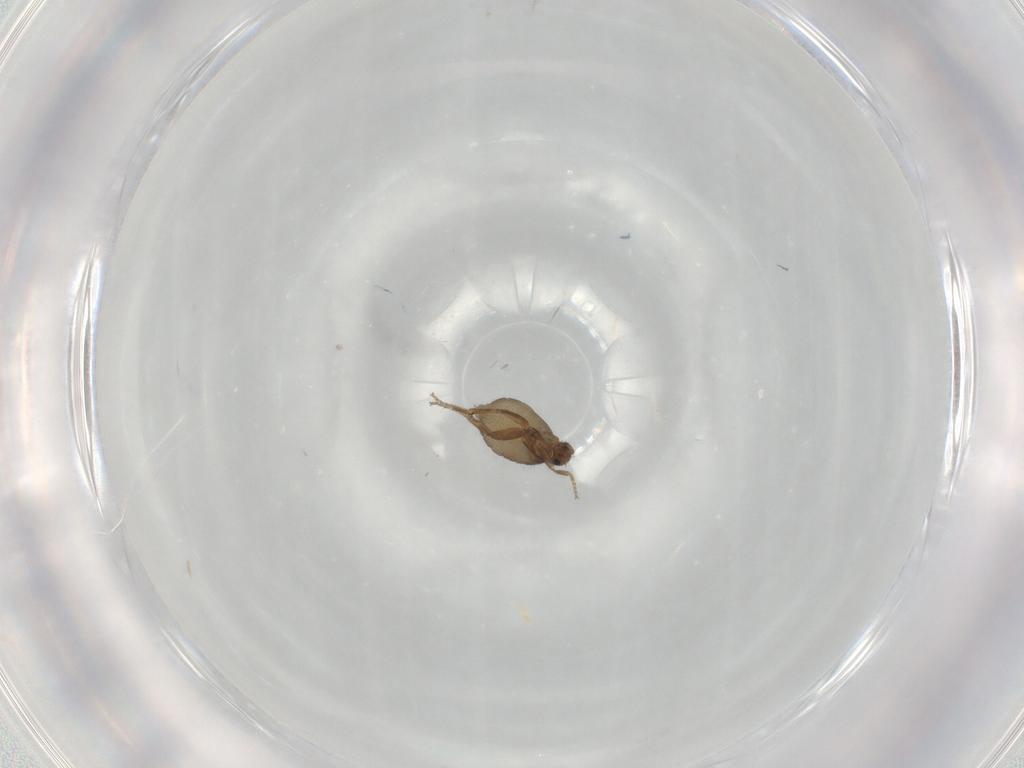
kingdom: Animalia
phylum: Arthropoda
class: Insecta
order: Diptera
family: Phoridae
